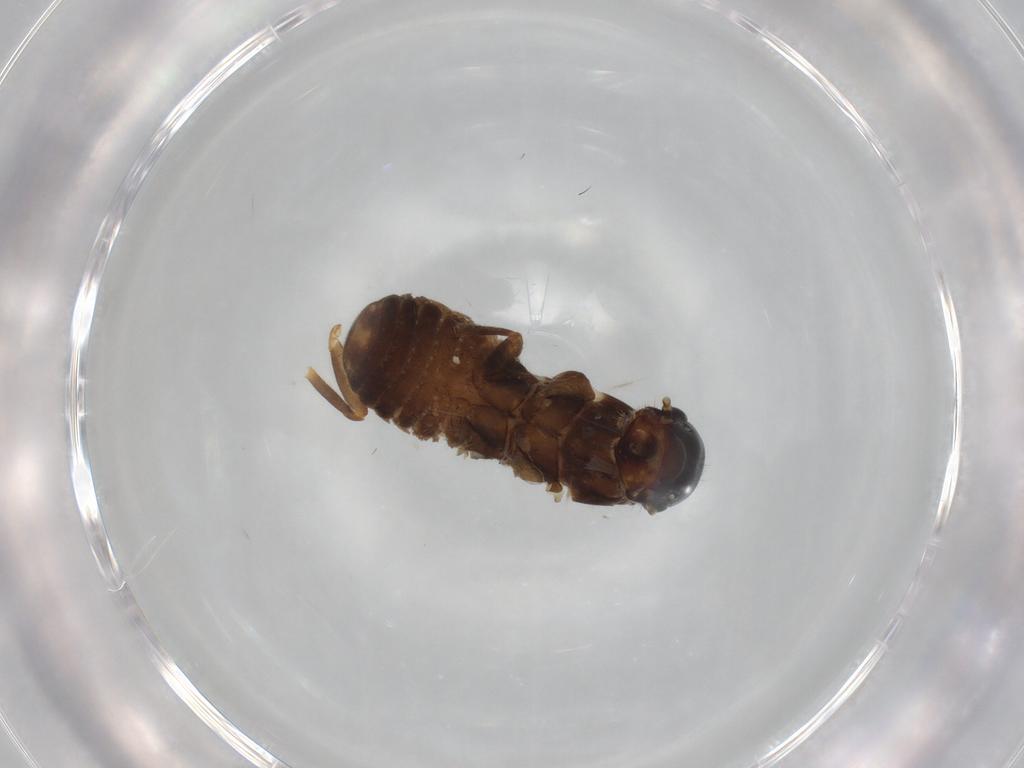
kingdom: Animalia
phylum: Arthropoda
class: Insecta
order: Blattodea
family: Termitidae
